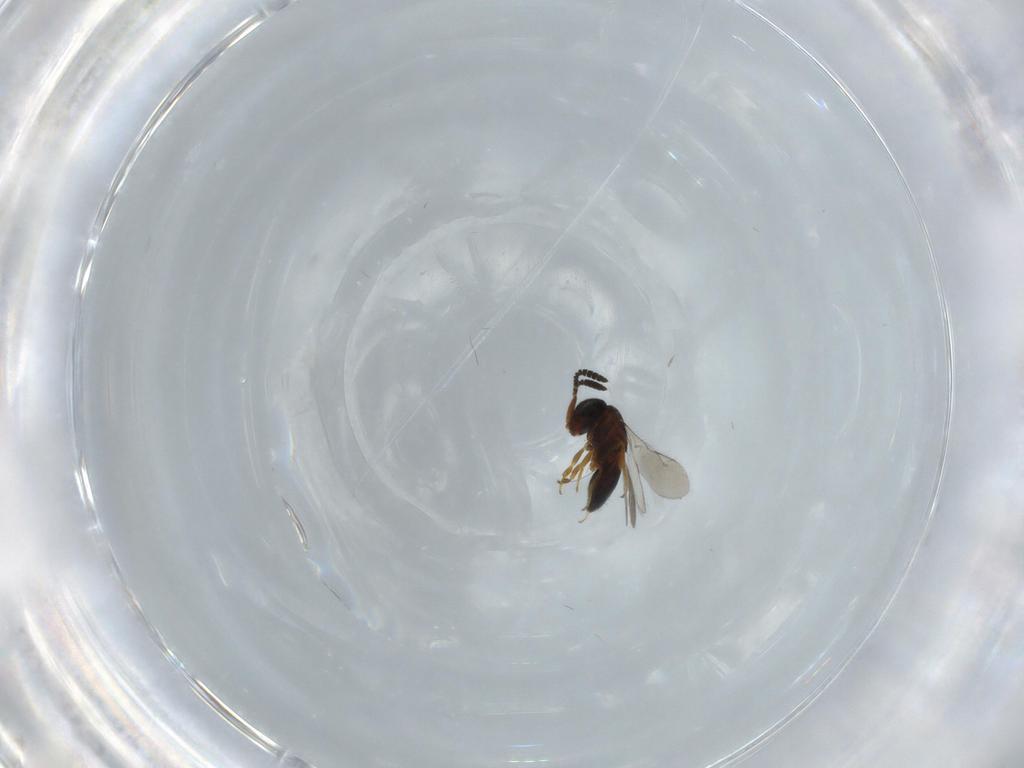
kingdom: Animalia
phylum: Arthropoda
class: Insecta
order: Hymenoptera
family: Scelionidae
